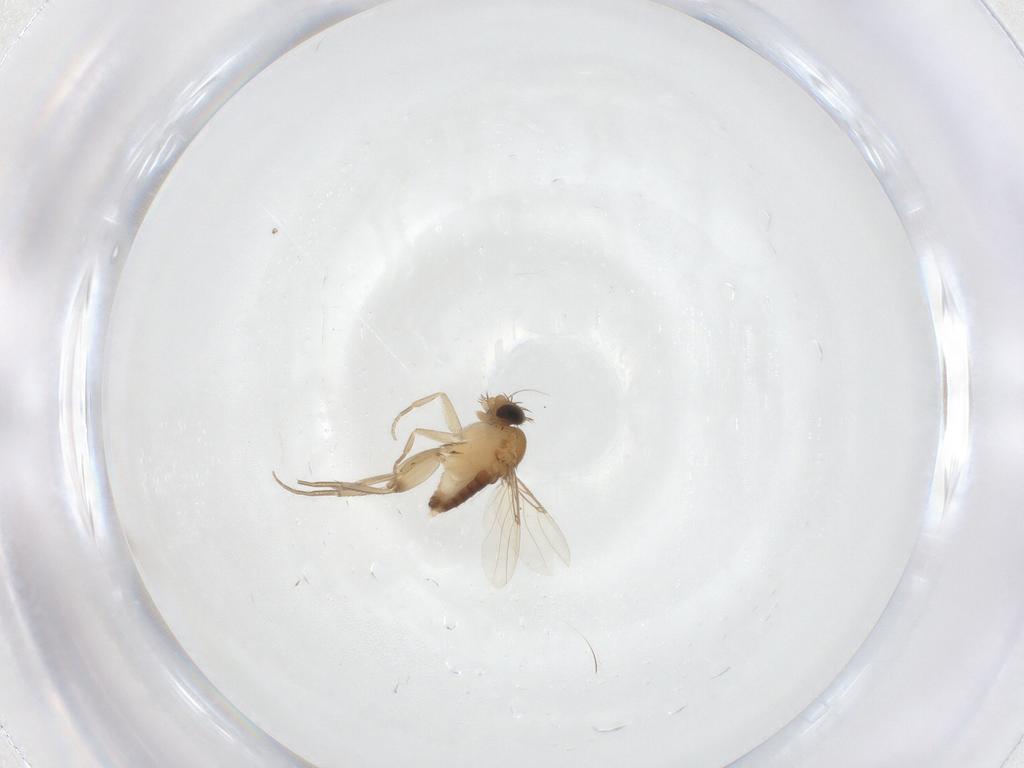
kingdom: Animalia
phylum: Arthropoda
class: Insecta
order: Diptera
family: Phoridae
